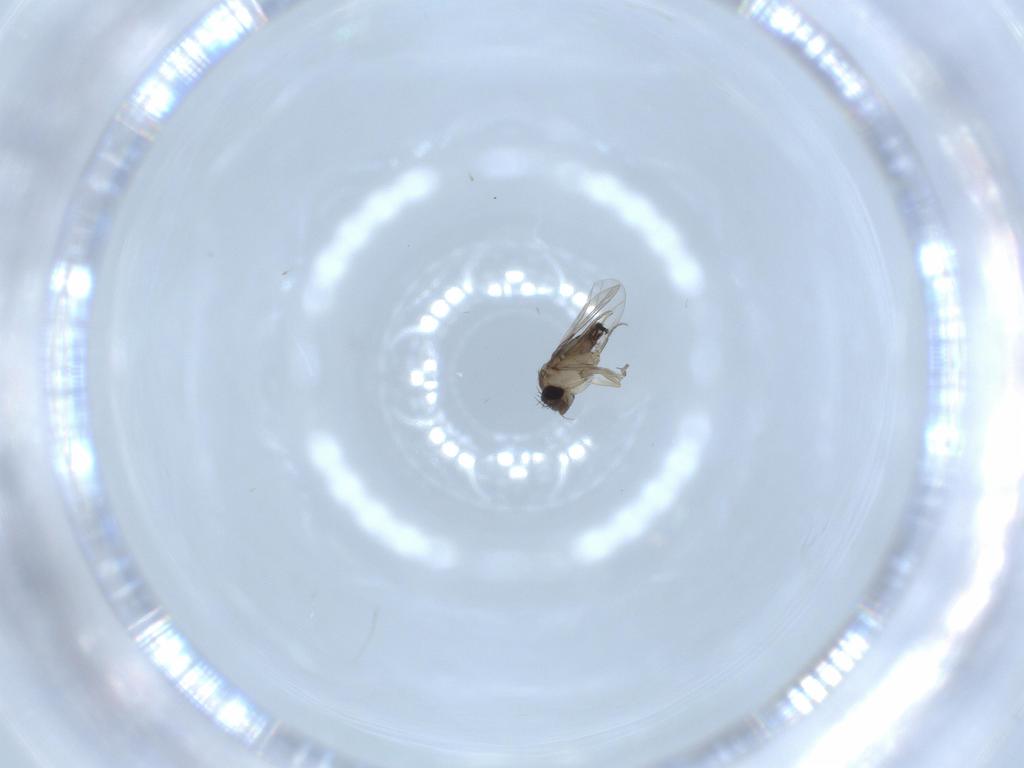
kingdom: Animalia
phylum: Arthropoda
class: Insecta
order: Diptera
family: Phoridae
